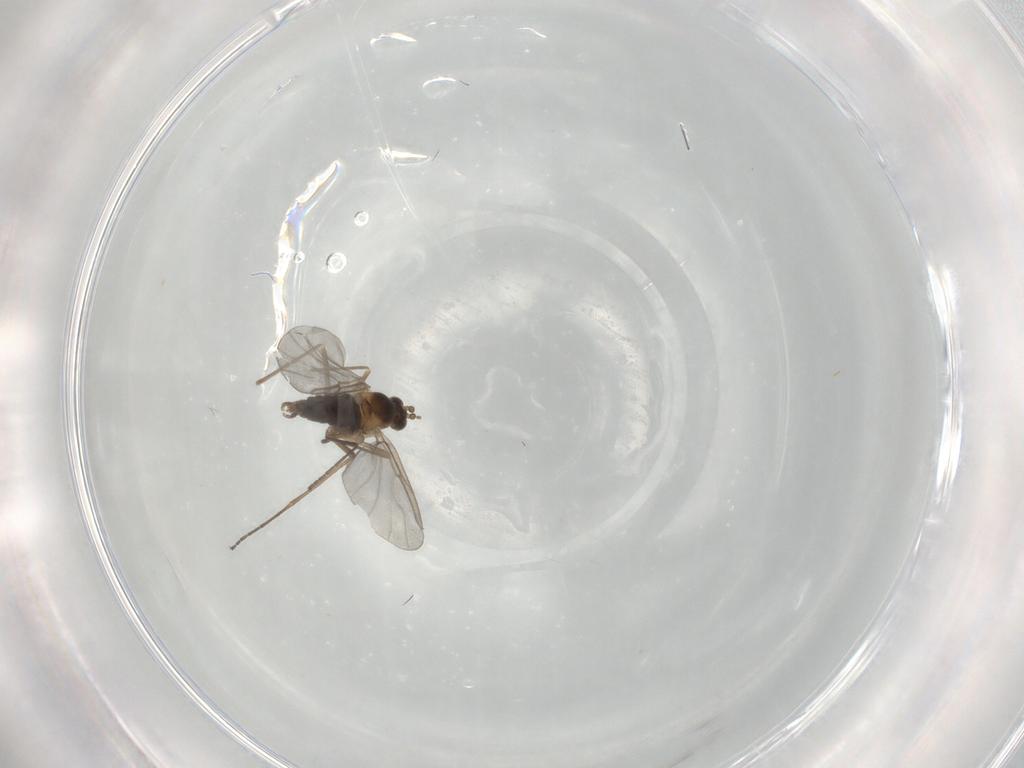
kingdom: Animalia
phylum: Arthropoda
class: Insecta
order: Diptera
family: Cecidomyiidae
